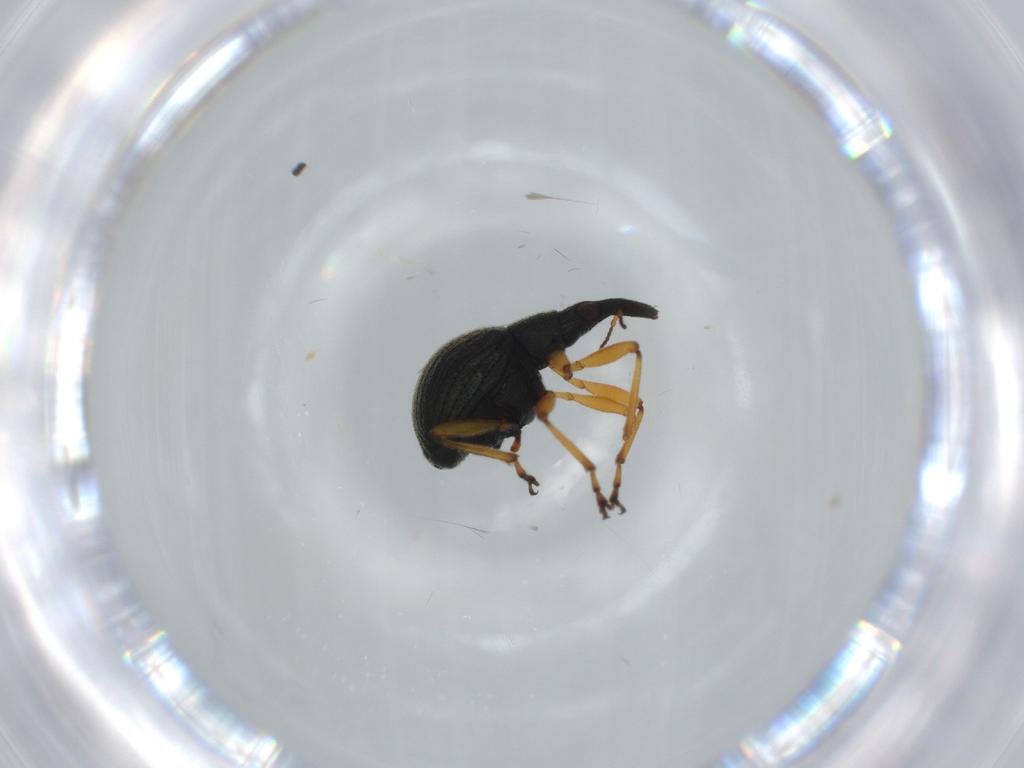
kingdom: Animalia
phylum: Arthropoda
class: Insecta
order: Coleoptera
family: Brentidae
